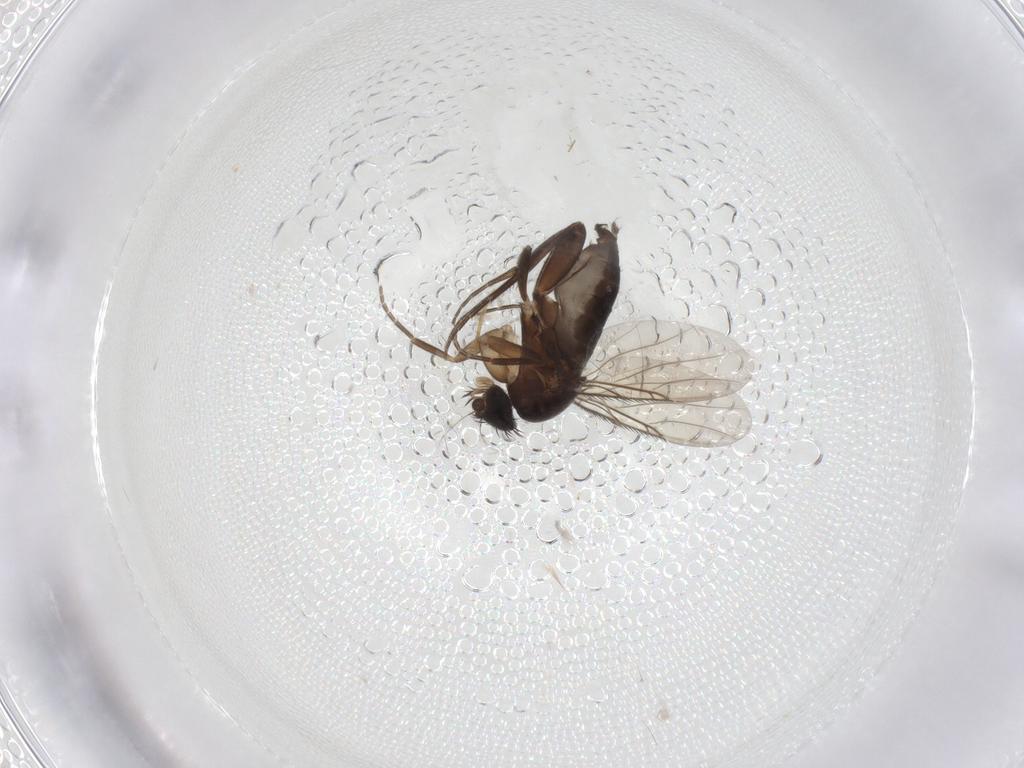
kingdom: Animalia
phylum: Arthropoda
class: Insecta
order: Diptera
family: Phoridae
